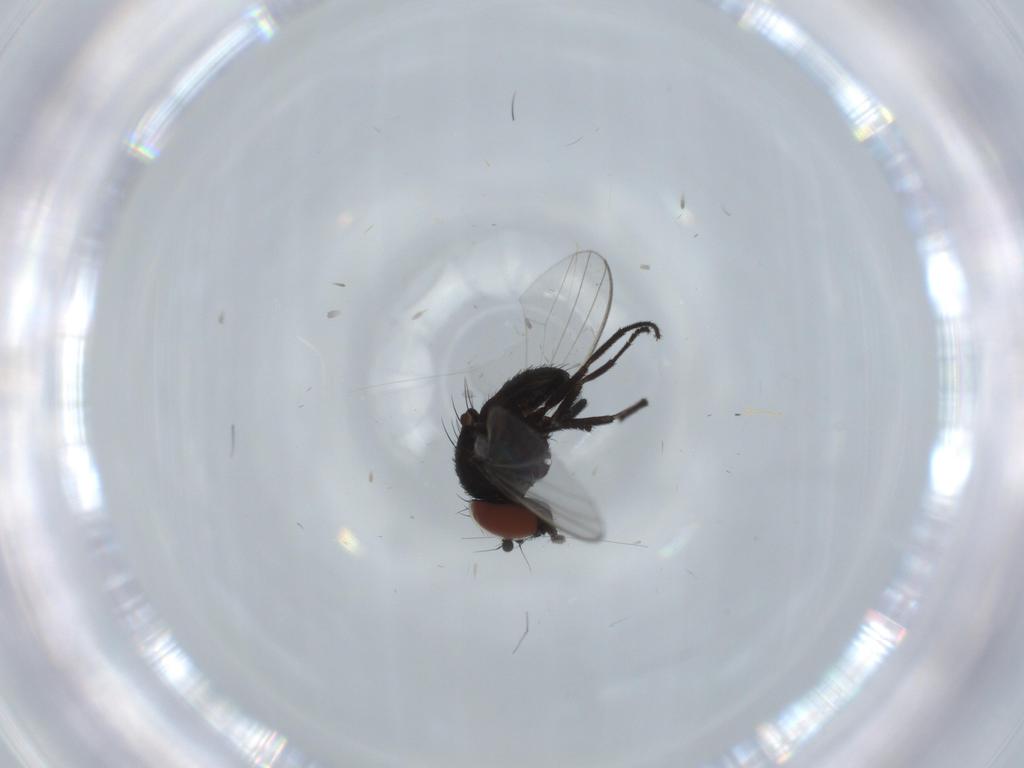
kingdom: Animalia
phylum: Arthropoda
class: Insecta
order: Diptera
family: Milichiidae
